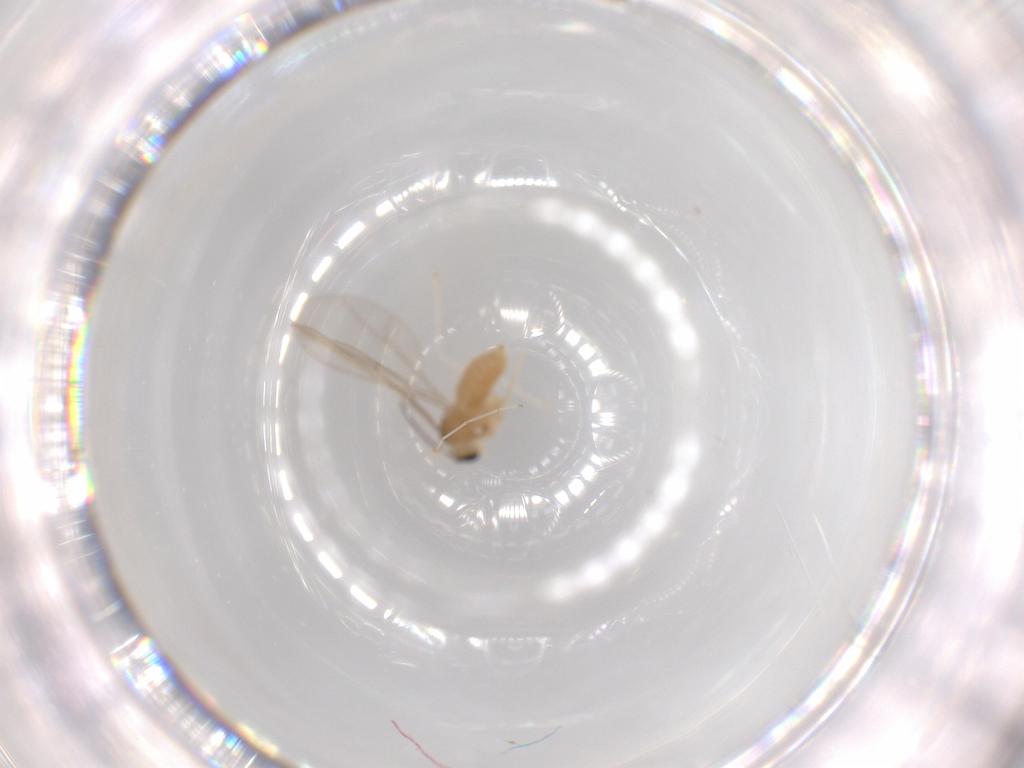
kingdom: Animalia
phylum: Arthropoda
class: Insecta
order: Diptera
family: Cecidomyiidae
